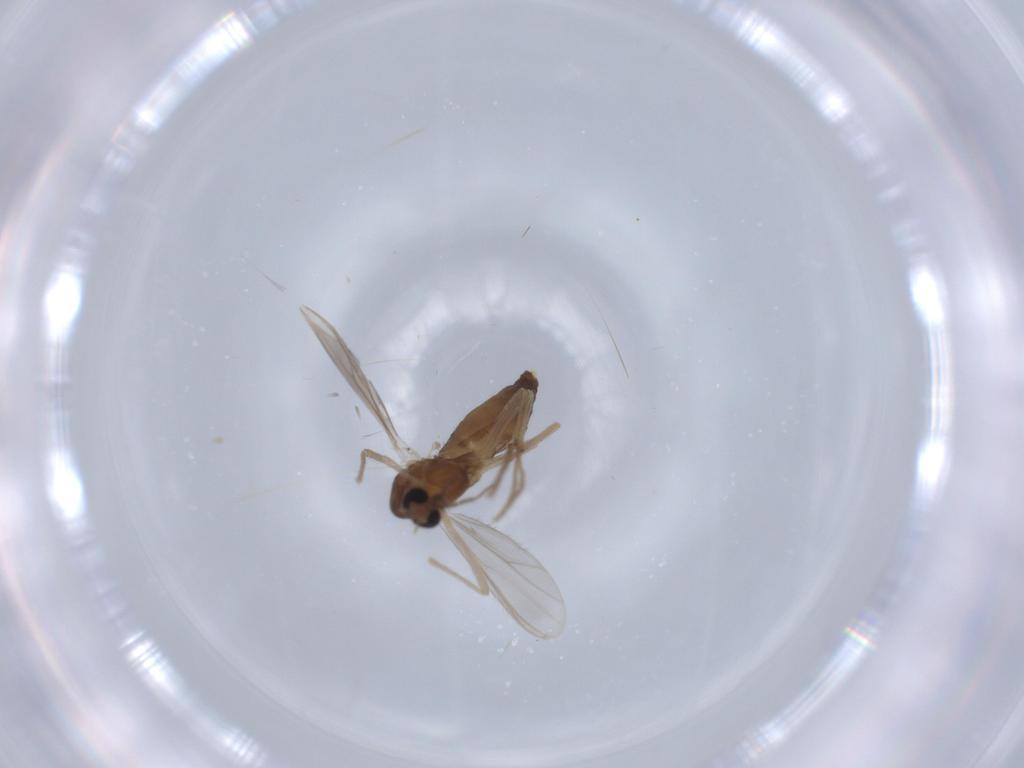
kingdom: Animalia
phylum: Arthropoda
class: Insecta
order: Diptera
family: Chironomidae
